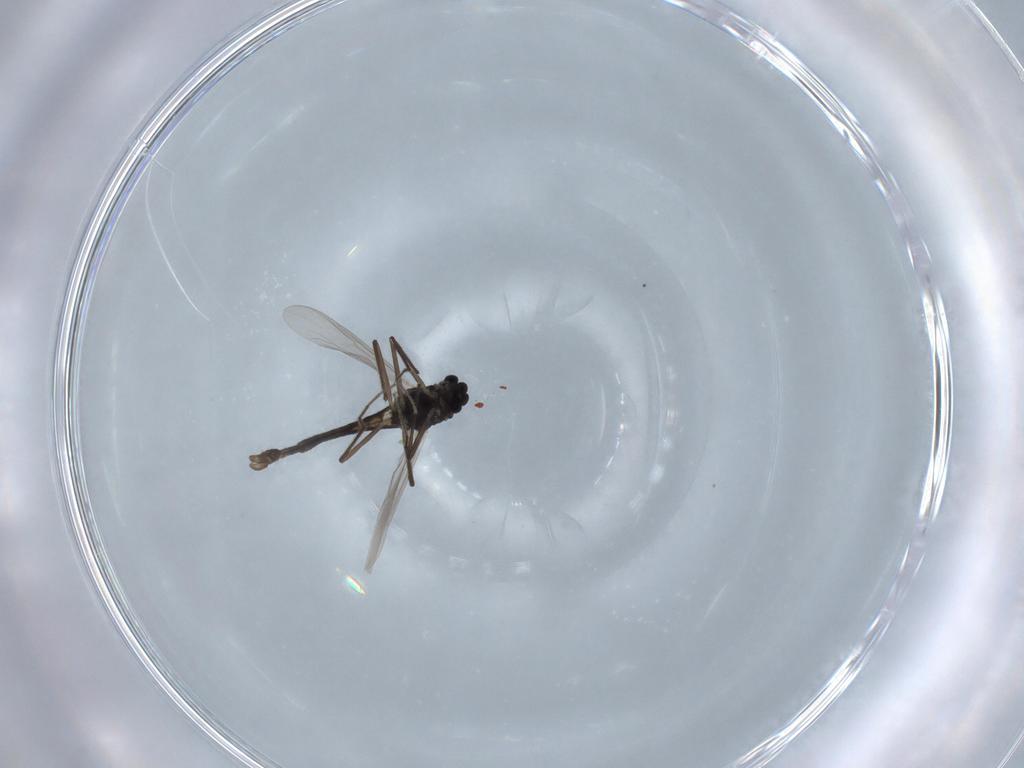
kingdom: Animalia
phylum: Arthropoda
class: Insecta
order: Diptera
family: Chironomidae
